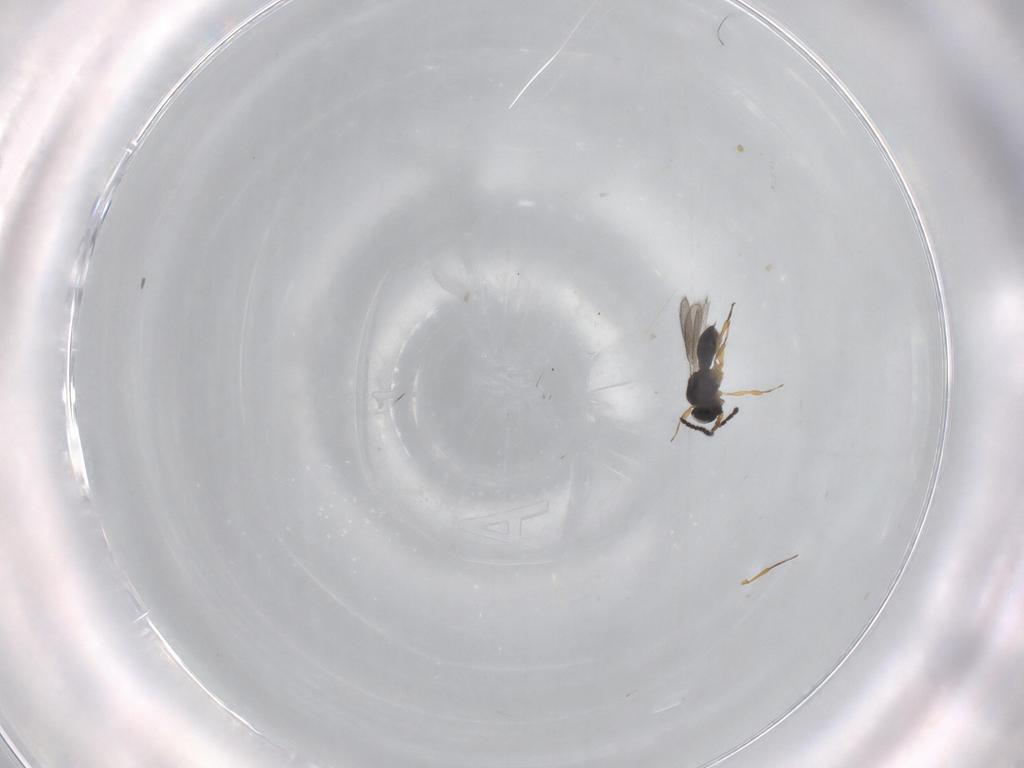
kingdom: Animalia
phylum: Arthropoda
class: Insecta
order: Hymenoptera
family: Scelionidae
